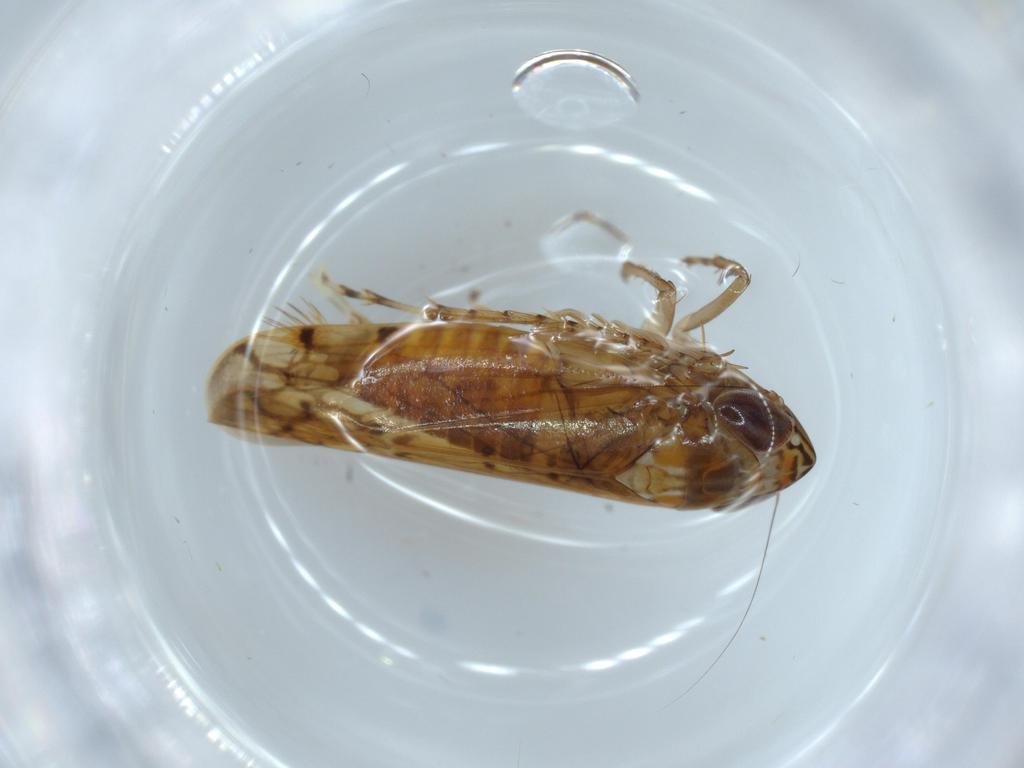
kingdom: Animalia
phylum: Arthropoda
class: Insecta
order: Hemiptera
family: Cicadellidae
